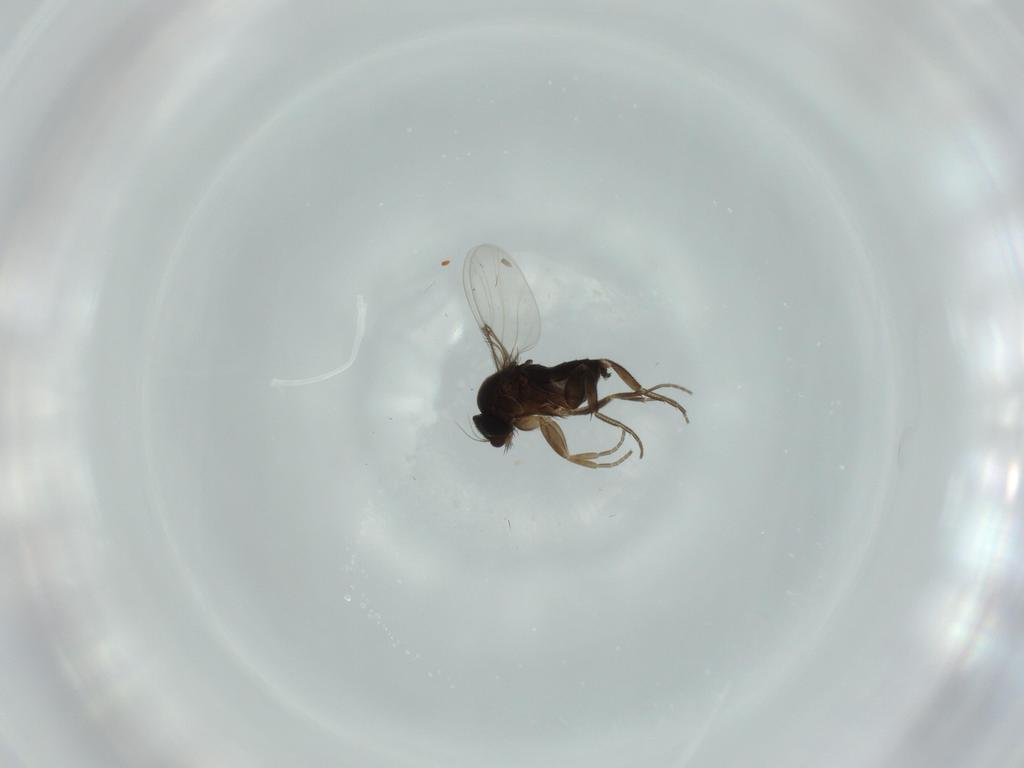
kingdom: Animalia
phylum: Arthropoda
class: Insecta
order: Diptera
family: Phoridae
